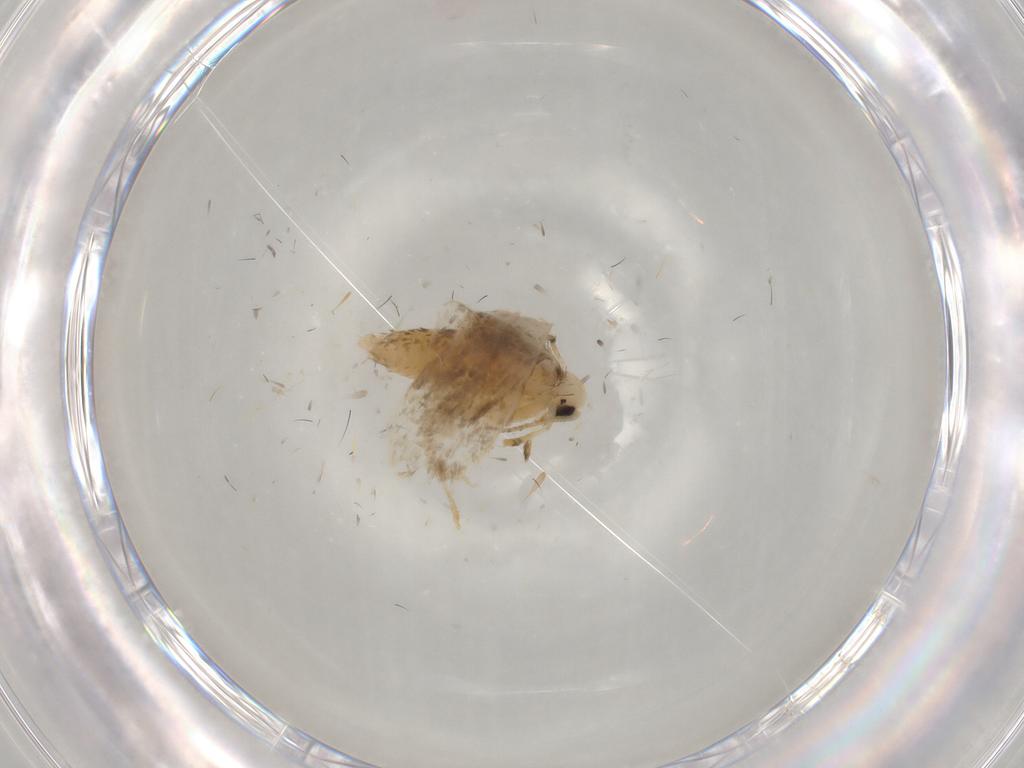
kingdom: Animalia
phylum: Arthropoda
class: Insecta
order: Lepidoptera
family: Psychidae
